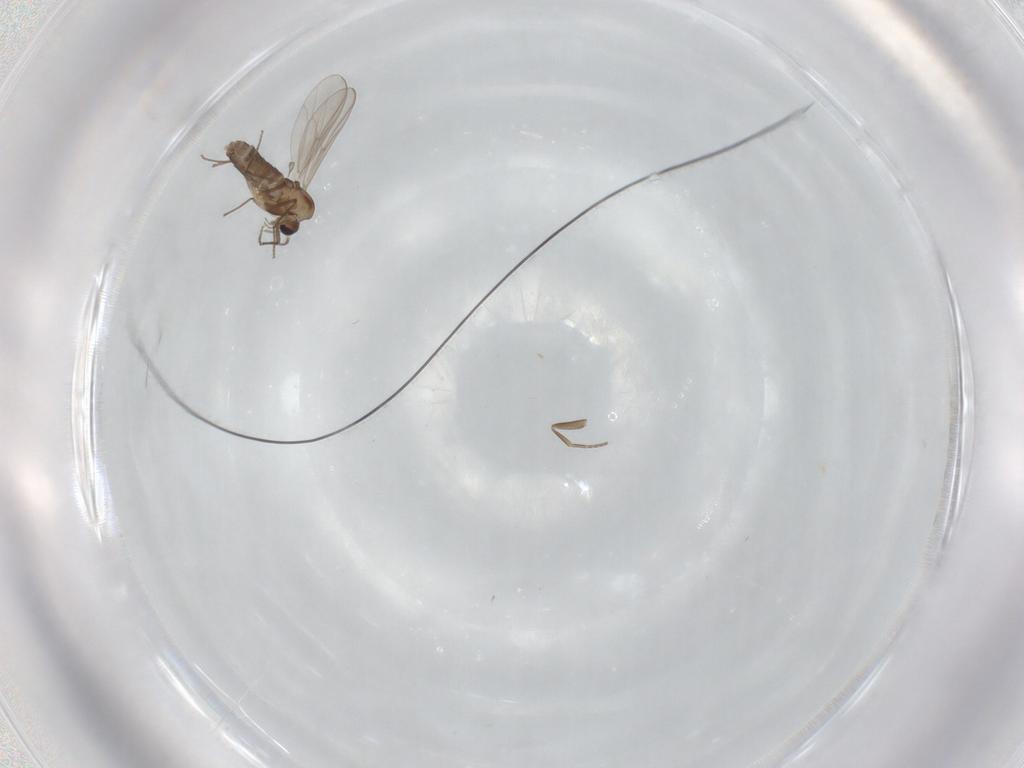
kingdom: Animalia
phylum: Arthropoda
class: Insecta
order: Diptera
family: Chironomidae
